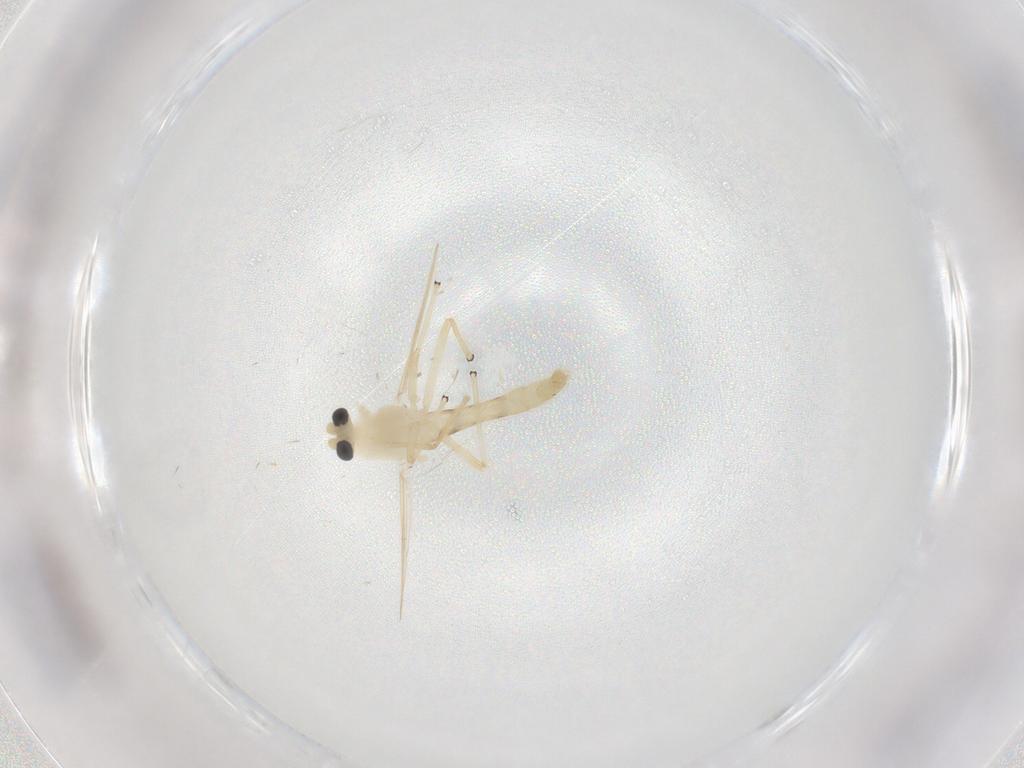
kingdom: Animalia
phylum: Arthropoda
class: Insecta
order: Diptera
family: Chironomidae
